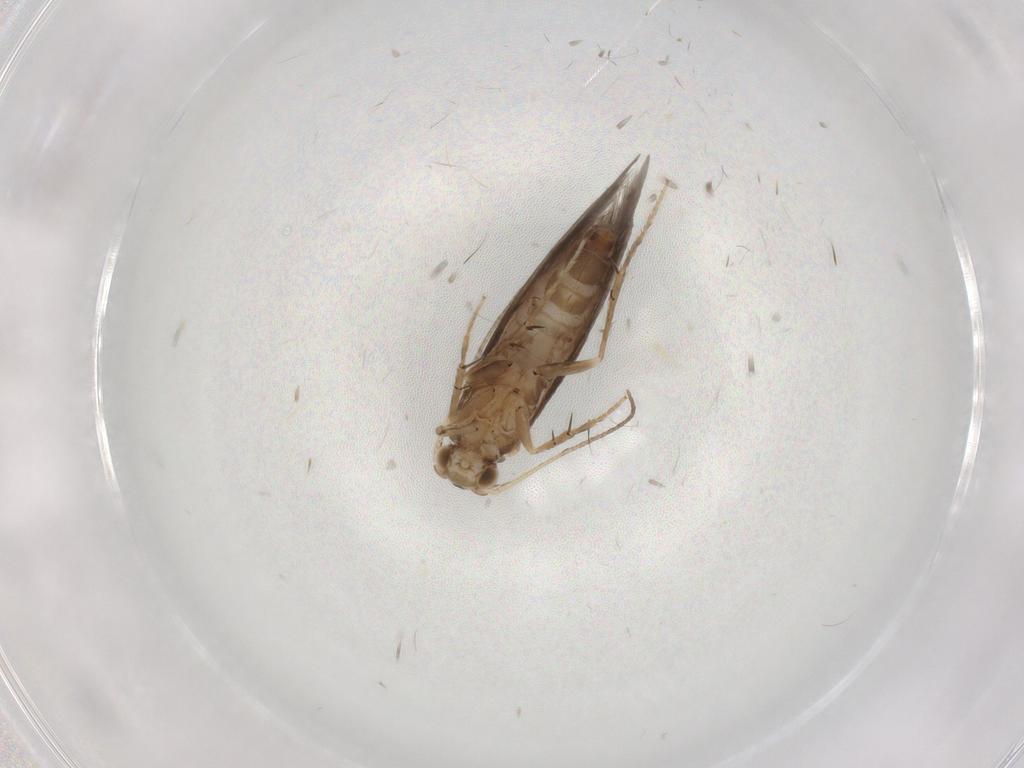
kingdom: Animalia
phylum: Arthropoda
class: Insecta
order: Trichoptera
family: Glossosomatidae
